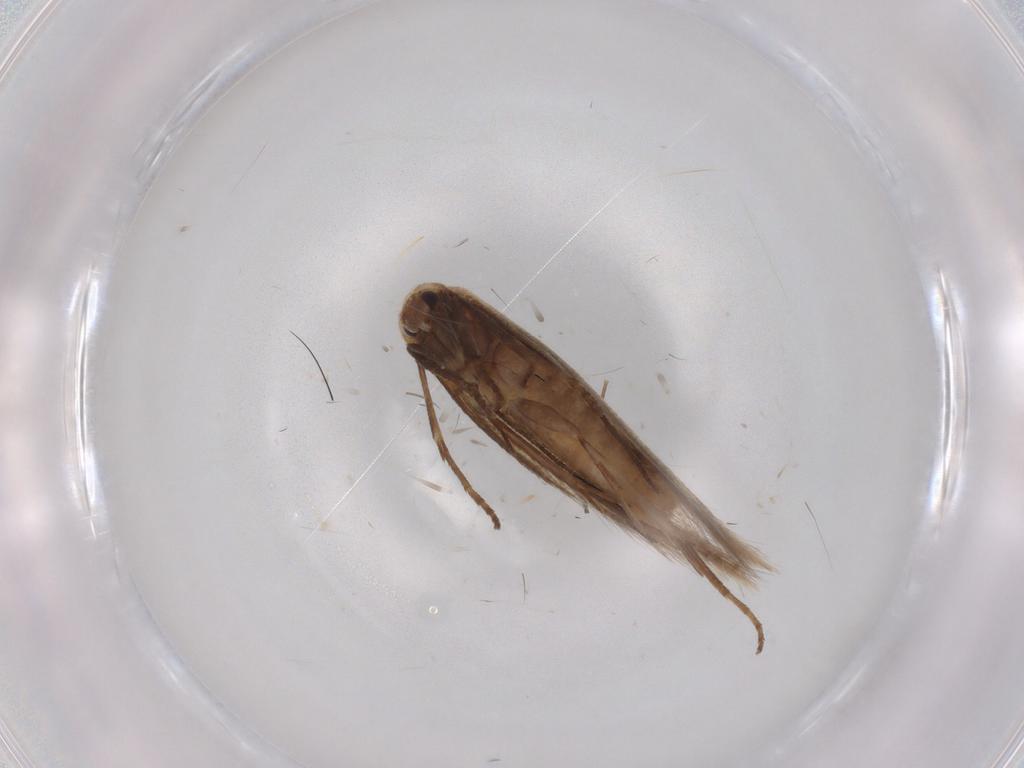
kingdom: Animalia
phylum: Arthropoda
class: Insecta
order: Lepidoptera
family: Bucculatricidae
